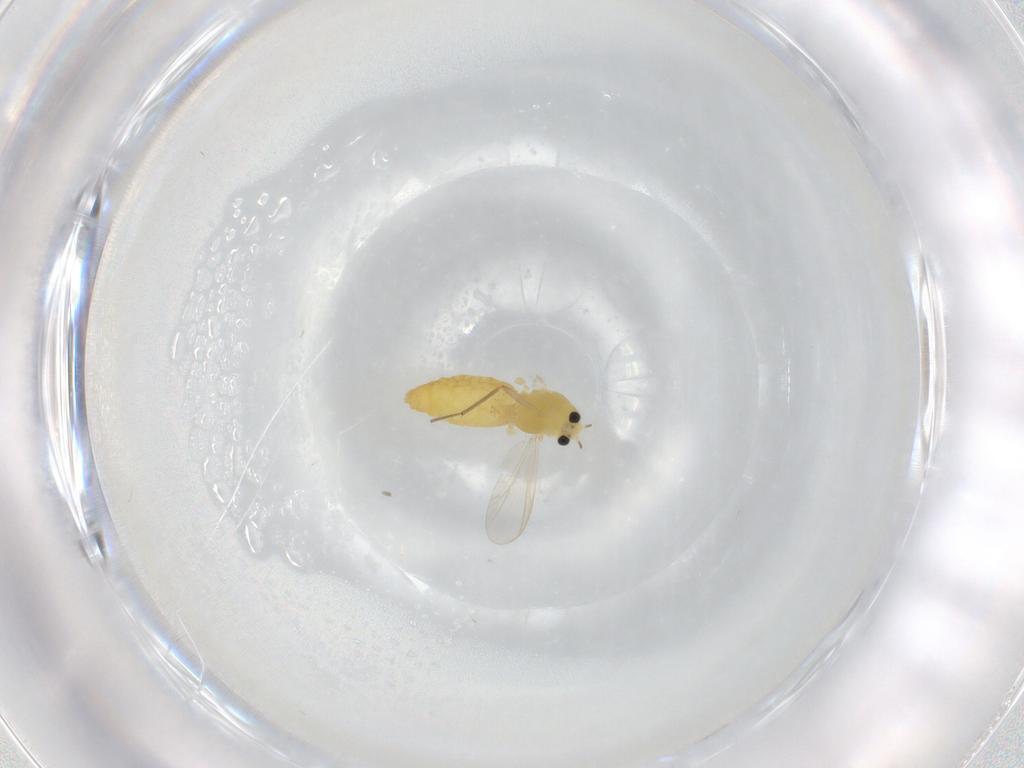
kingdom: Animalia
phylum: Arthropoda
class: Insecta
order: Diptera
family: Chironomidae
